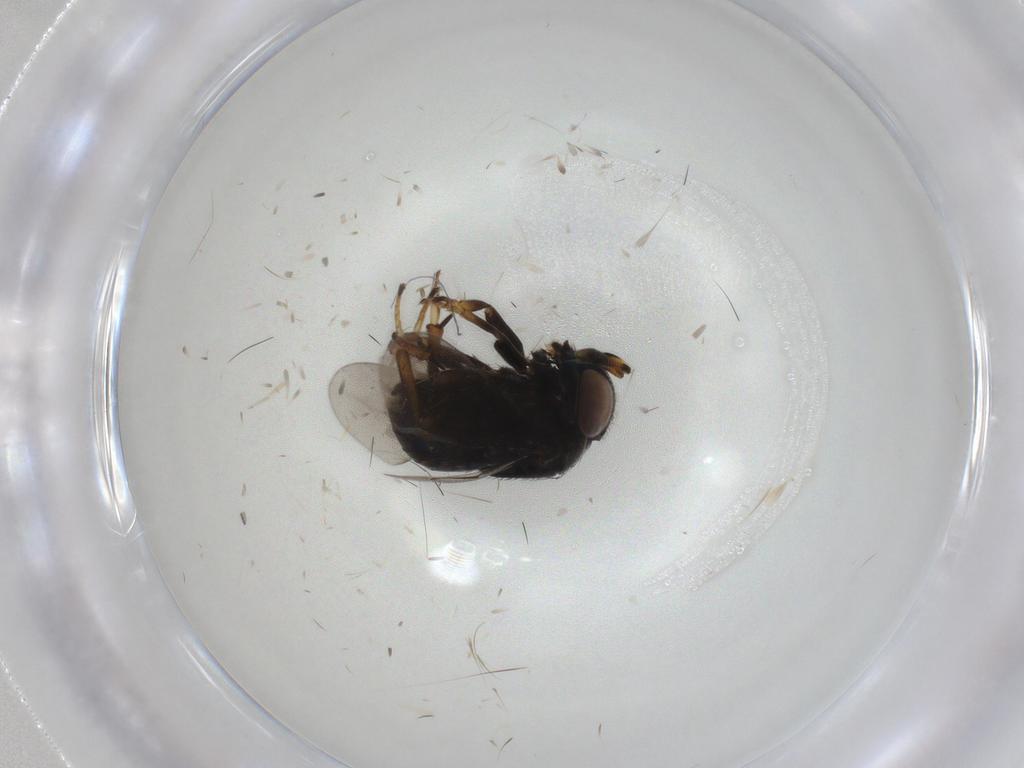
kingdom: Animalia
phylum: Arthropoda
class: Insecta
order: Hymenoptera
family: Encyrtidae
